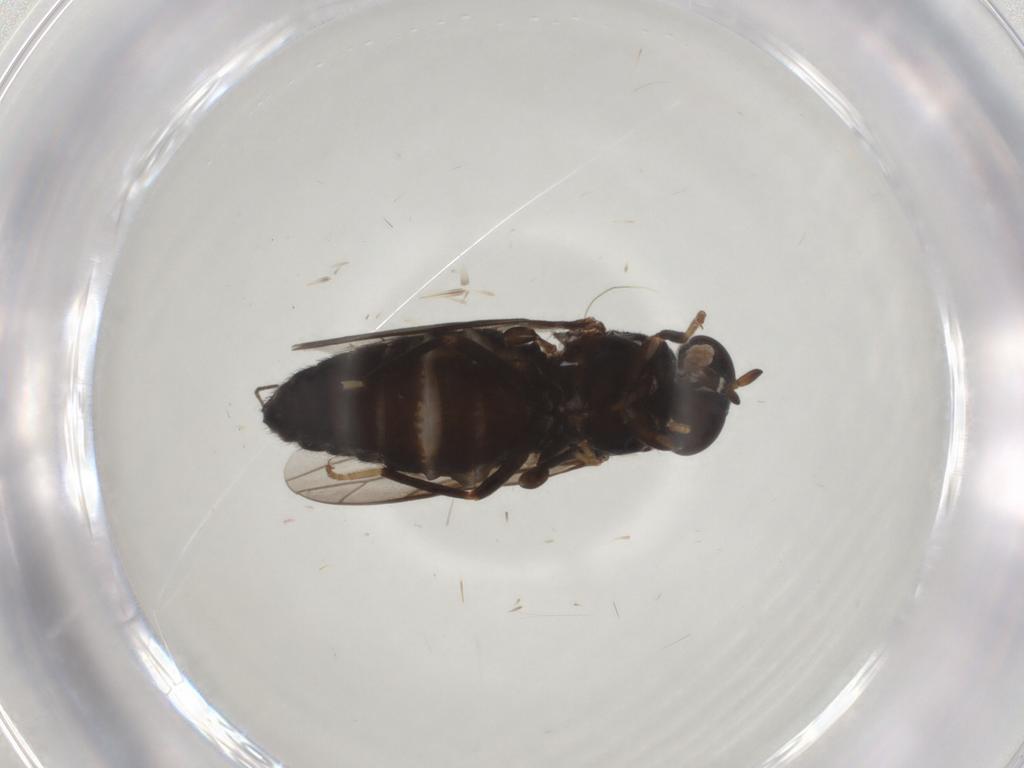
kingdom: Animalia
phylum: Arthropoda
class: Insecta
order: Diptera
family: Chironomidae
